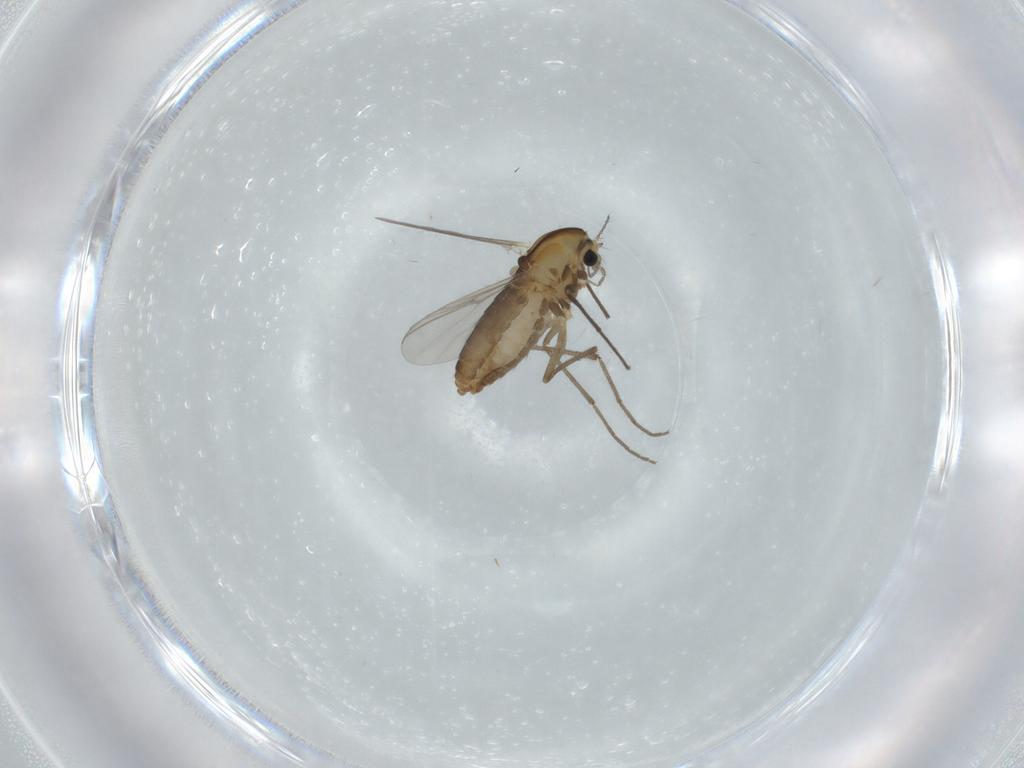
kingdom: Animalia
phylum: Arthropoda
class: Insecta
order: Diptera
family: Chironomidae
